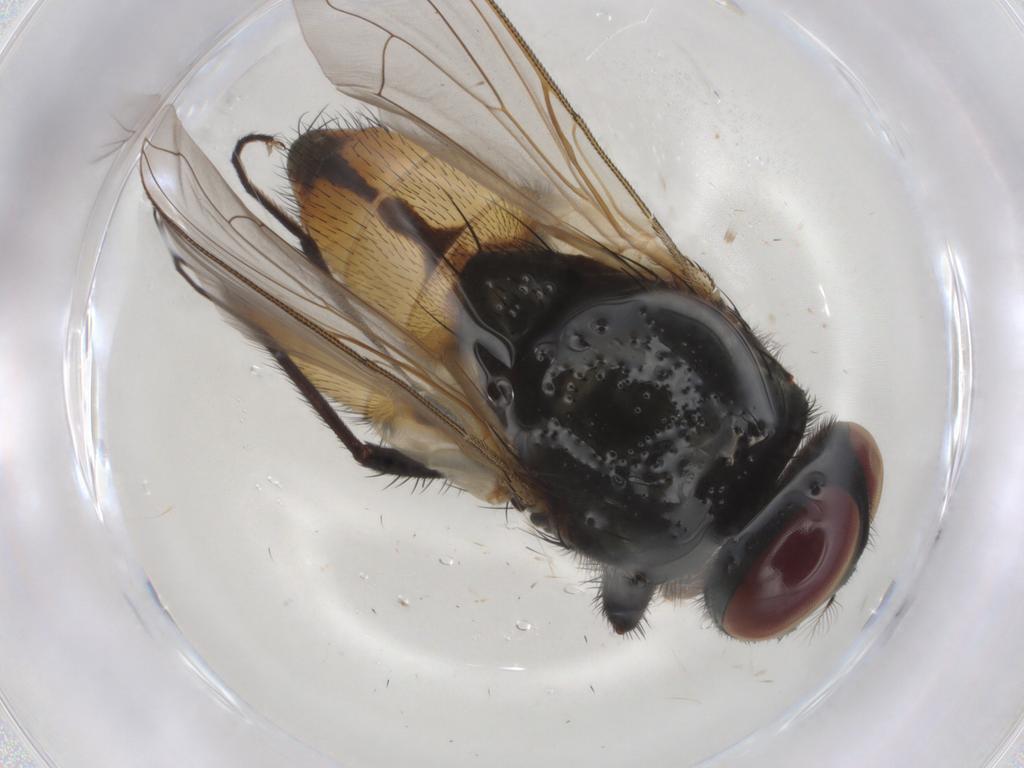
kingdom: Animalia
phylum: Arthropoda
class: Insecta
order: Diptera
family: Muscidae
